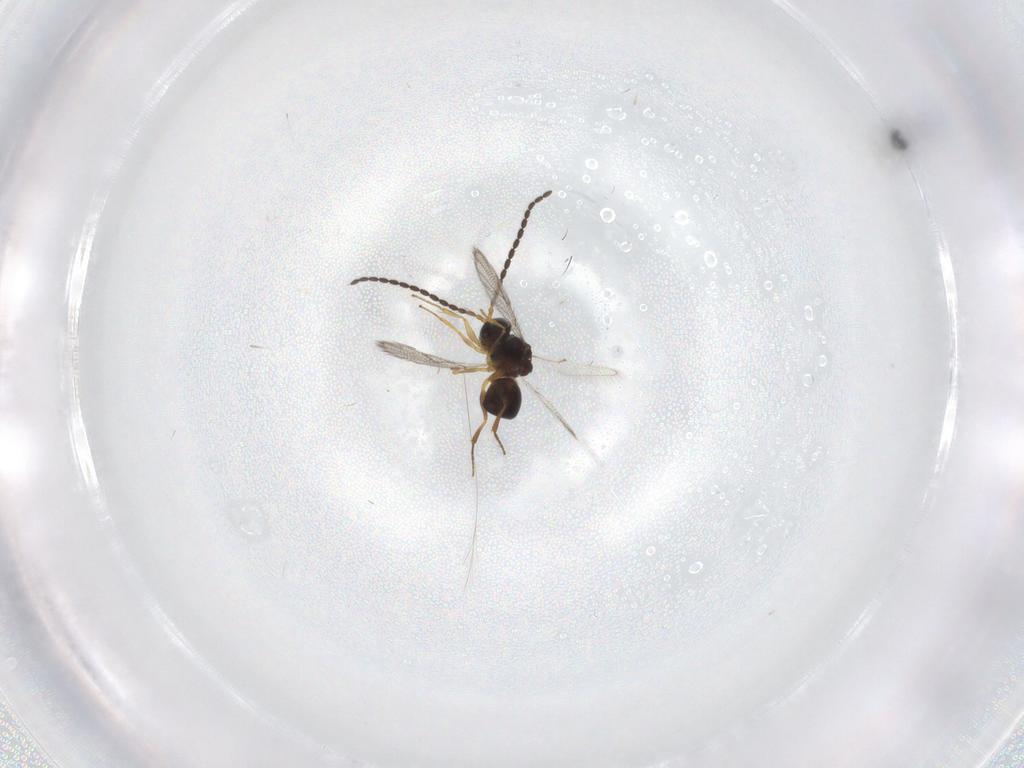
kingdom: Animalia
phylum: Arthropoda
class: Insecta
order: Hymenoptera
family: Figitidae
